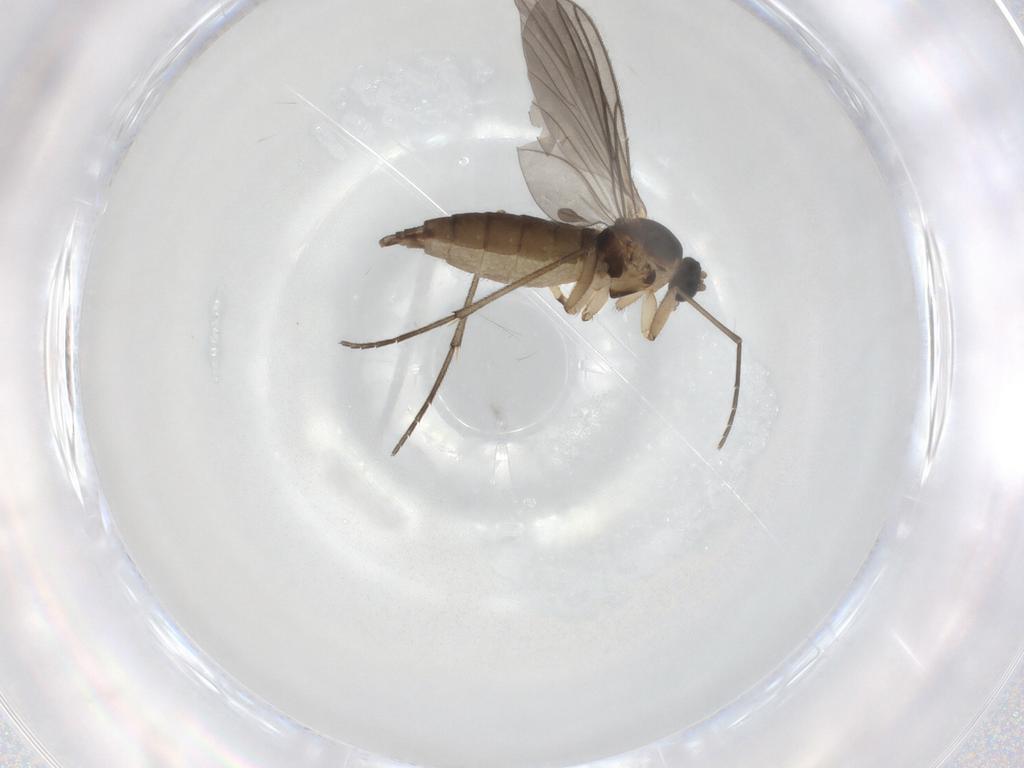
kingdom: Animalia
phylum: Arthropoda
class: Insecta
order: Diptera
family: Sciaridae
